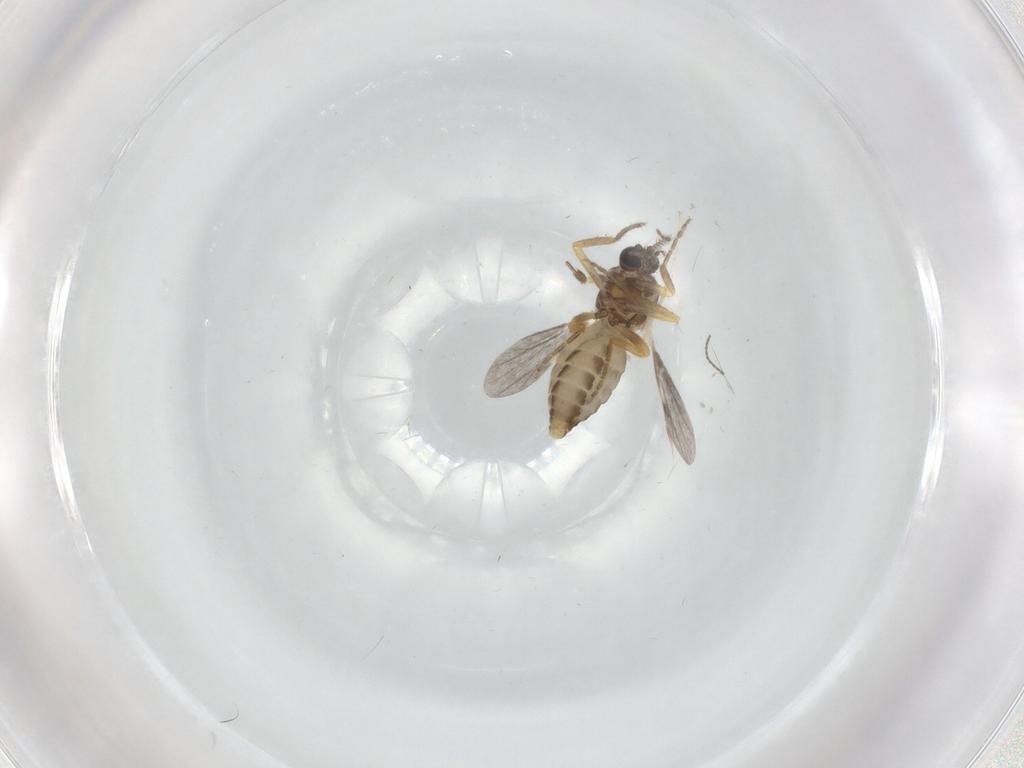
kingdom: Animalia
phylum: Arthropoda
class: Insecta
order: Diptera
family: Ceratopogonidae
